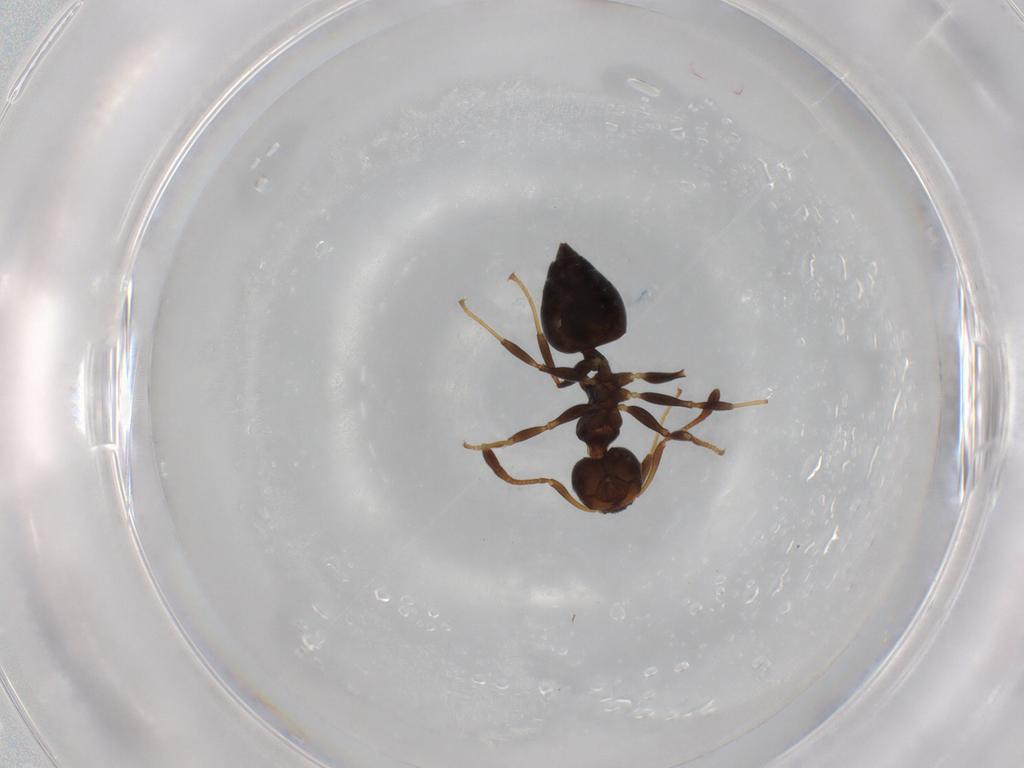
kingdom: Animalia
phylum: Arthropoda
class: Insecta
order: Hymenoptera
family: Formicidae
